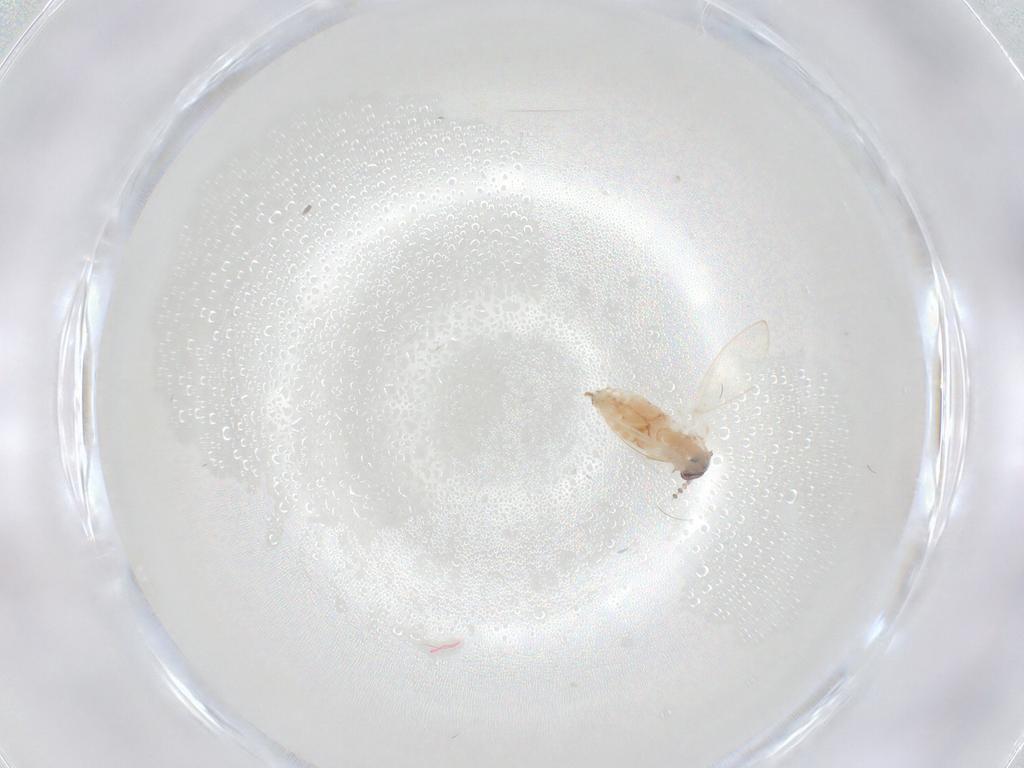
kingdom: Animalia
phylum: Arthropoda
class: Insecta
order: Diptera
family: Psychodidae
